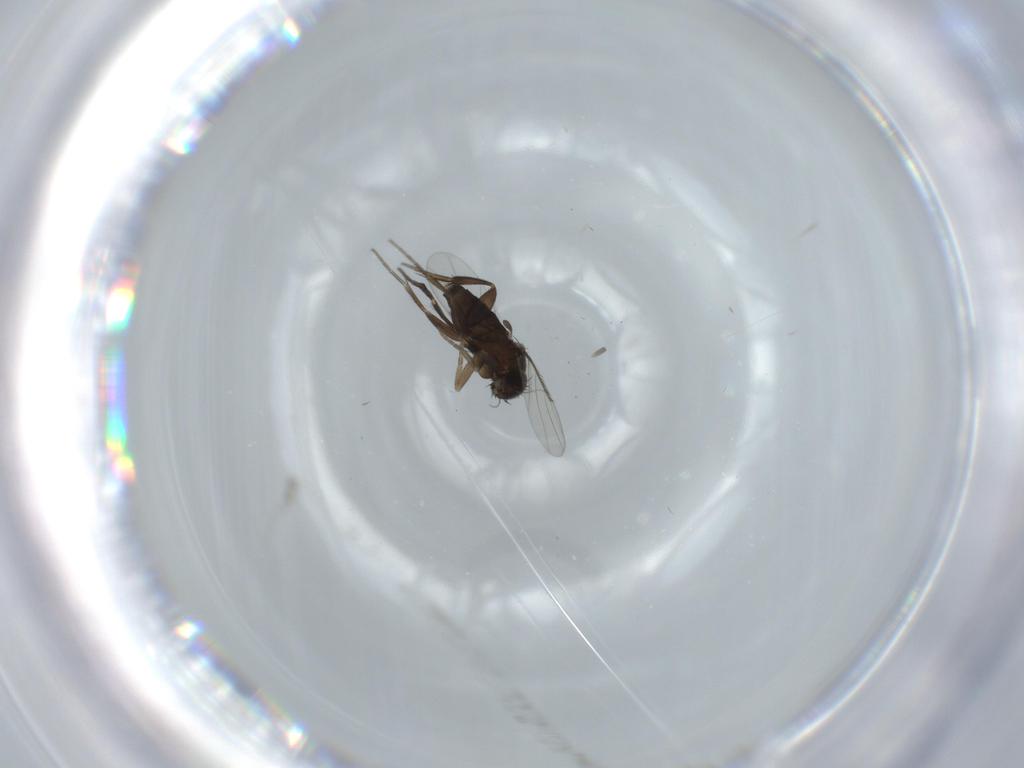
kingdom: Animalia
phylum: Arthropoda
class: Insecta
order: Diptera
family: Phoridae
